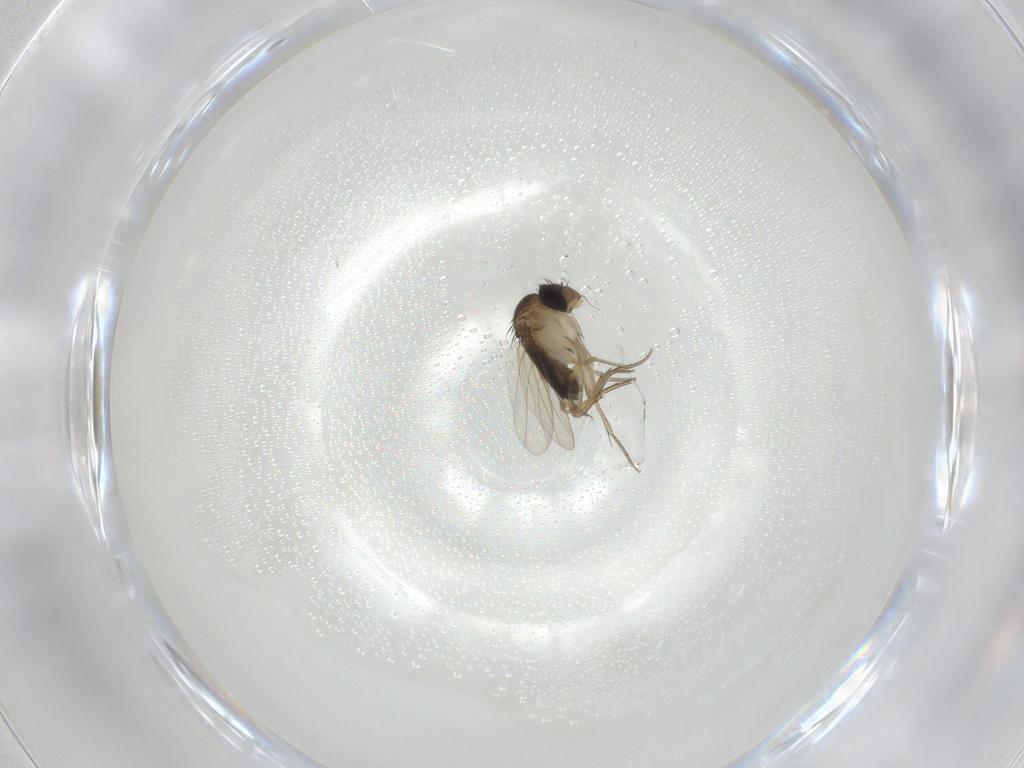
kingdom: Animalia
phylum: Arthropoda
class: Insecta
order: Diptera
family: Phoridae
